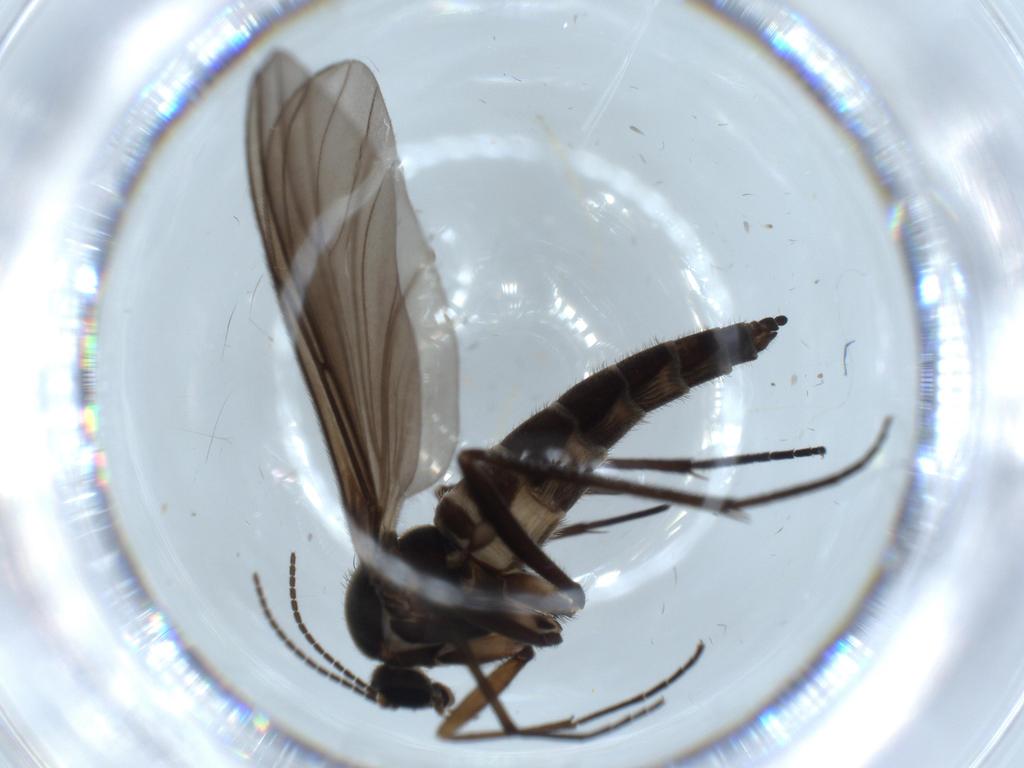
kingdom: Animalia
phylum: Arthropoda
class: Insecta
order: Diptera
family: Sciaridae
